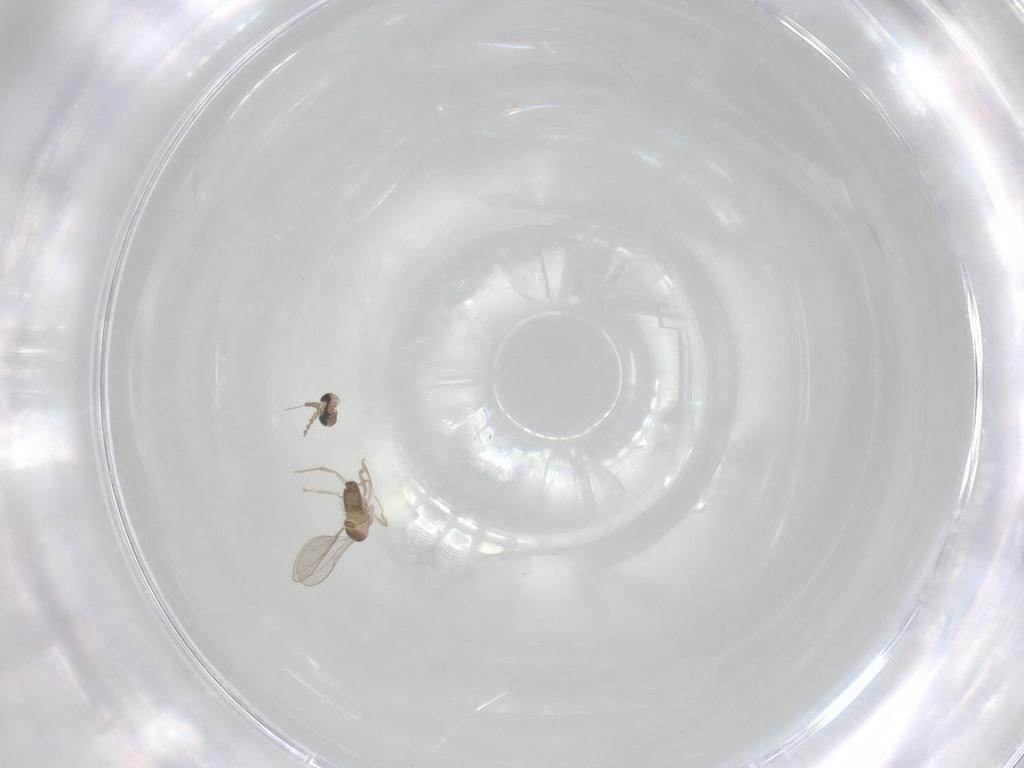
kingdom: Animalia
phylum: Arthropoda
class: Insecta
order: Diptera
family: Cecidomyiidae
